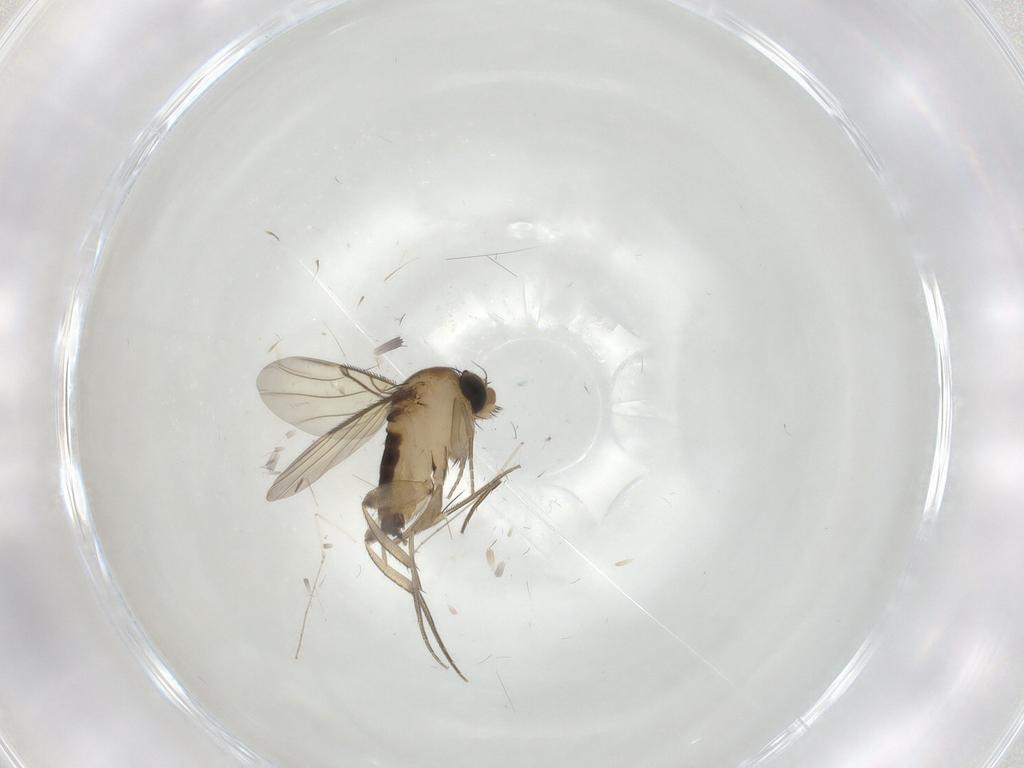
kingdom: Animalia
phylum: Arthropoda
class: Insecta
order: Diptera
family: Phoridae
